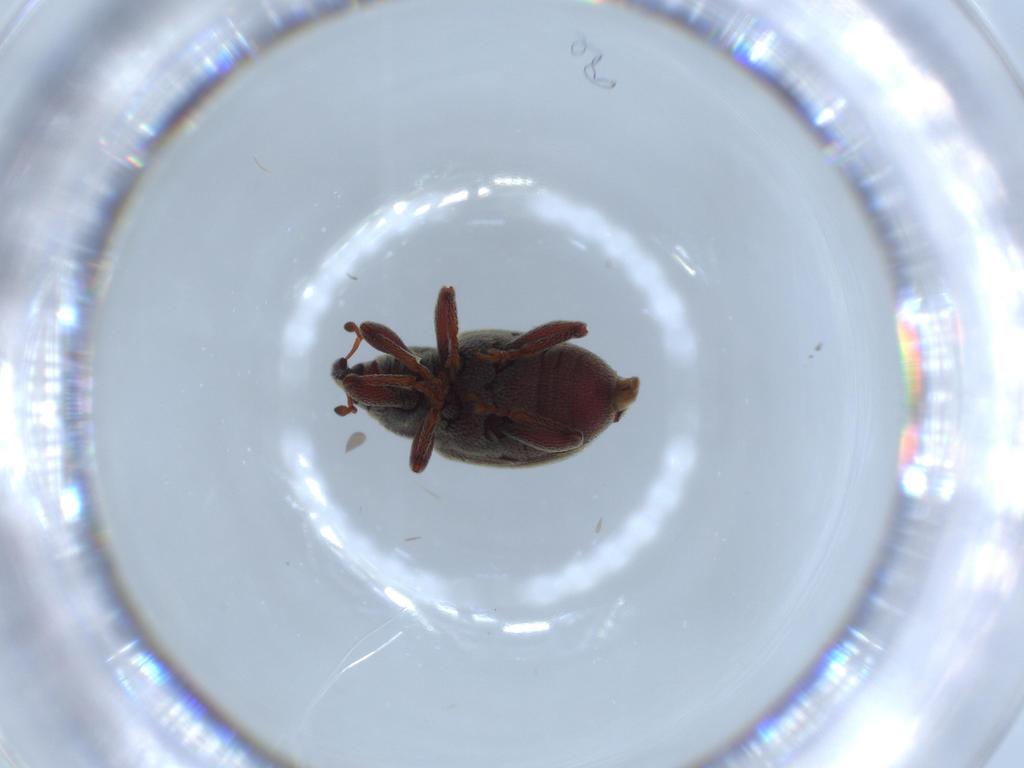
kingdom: Animalia
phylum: Arthropoda
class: Insecta
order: Coleoptera
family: Curculionidae
